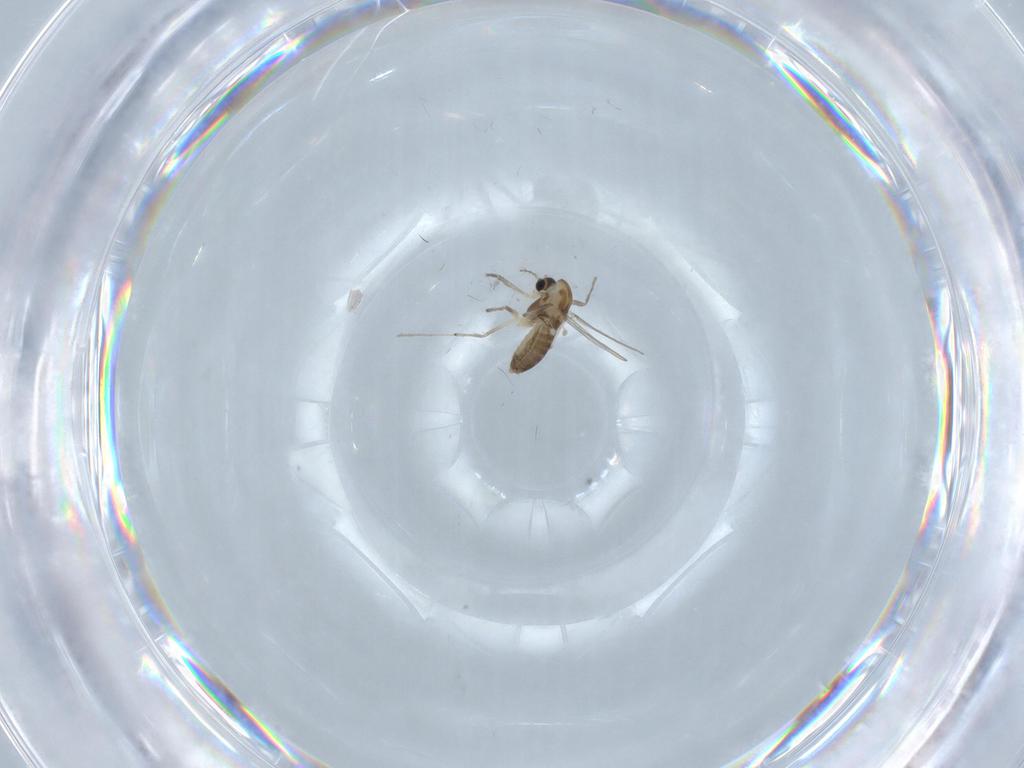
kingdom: Animalia
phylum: Arthropoda
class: Insecta
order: Diptera
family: Chironomidae
